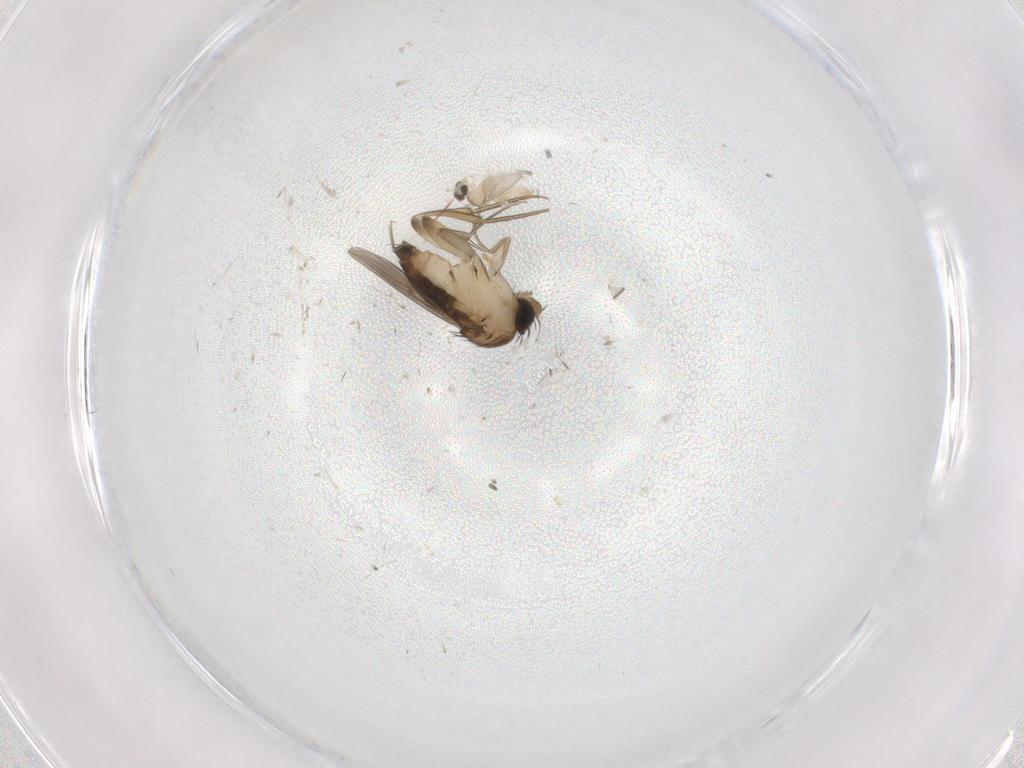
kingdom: Animalia
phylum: Arthropoda
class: Insecta
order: Diptera
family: Phoridae
